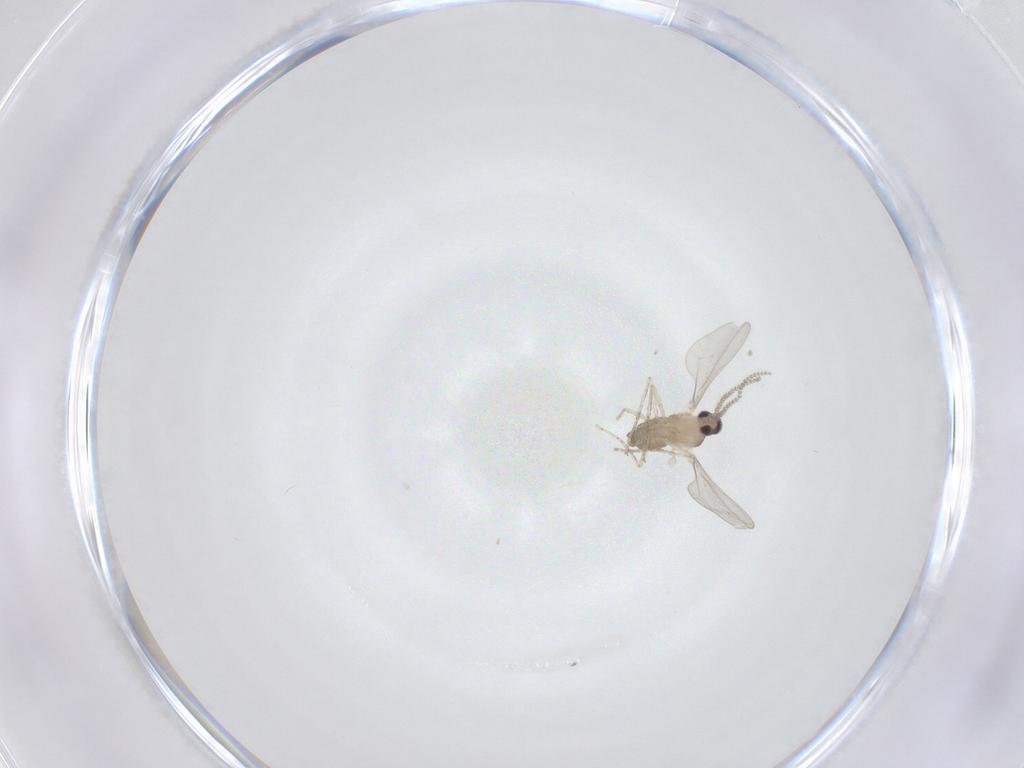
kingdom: Animalia
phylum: Arthropoda
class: Insecta
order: Diptera
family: Cecidomyiidae
